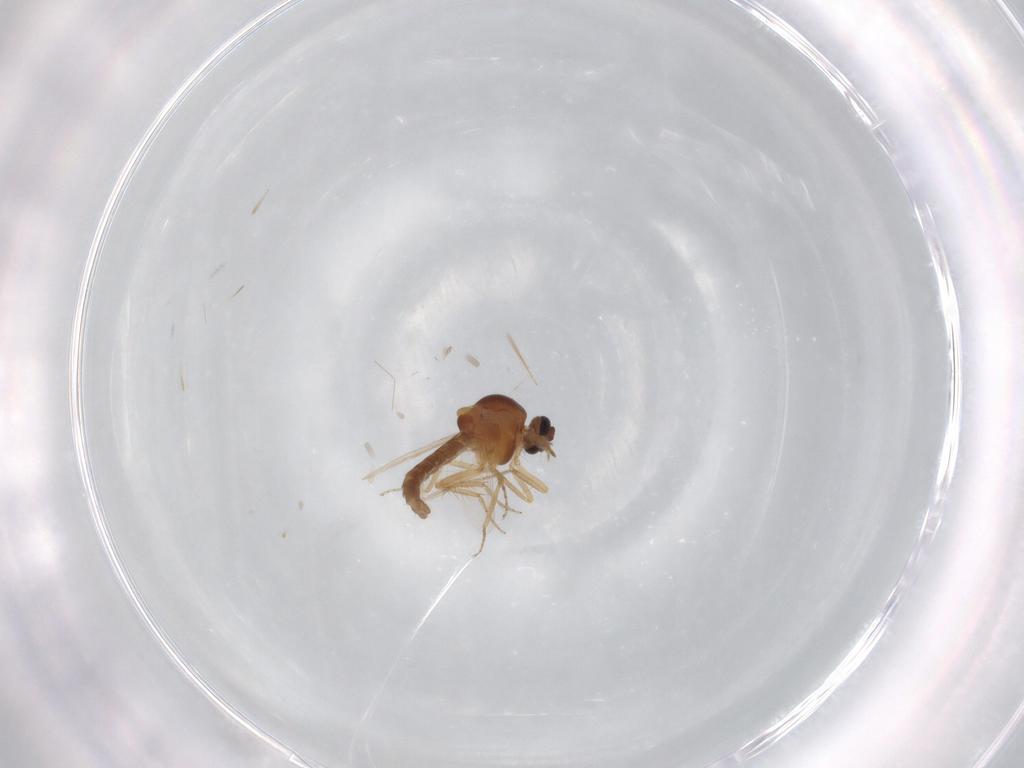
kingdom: Animalia
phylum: Arthropoda
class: Insecta
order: Diptera
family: Ceratopogonidae
